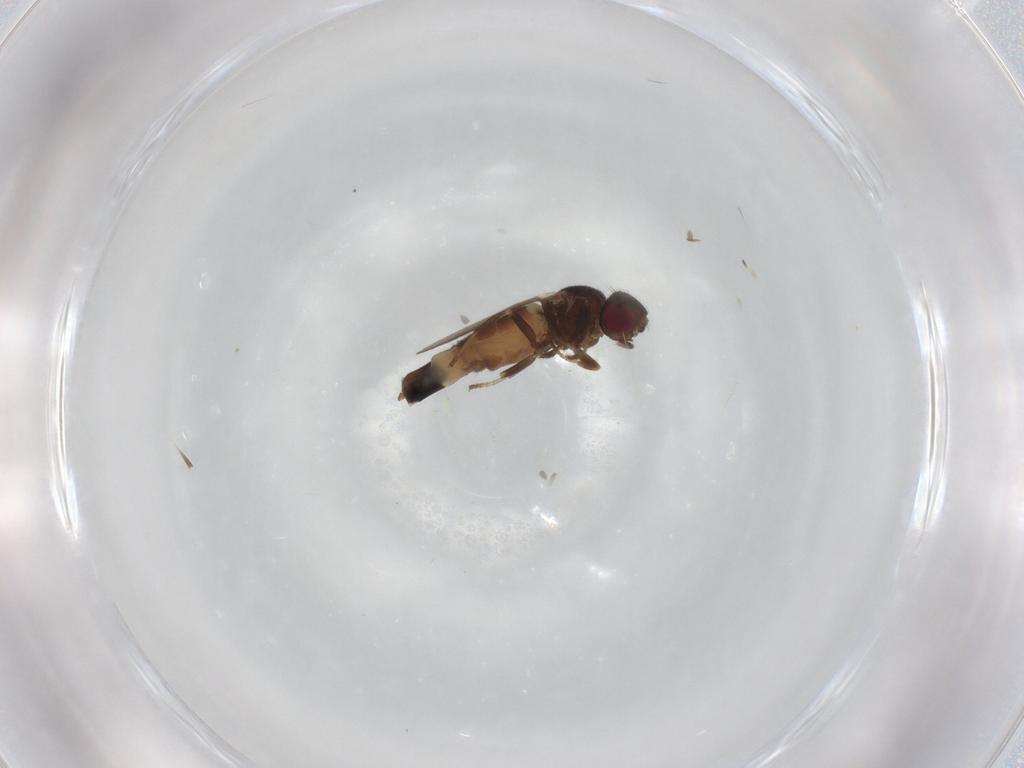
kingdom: Animalia
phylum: Arthropoda
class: Insecta
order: Diptera
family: Chloropidae
